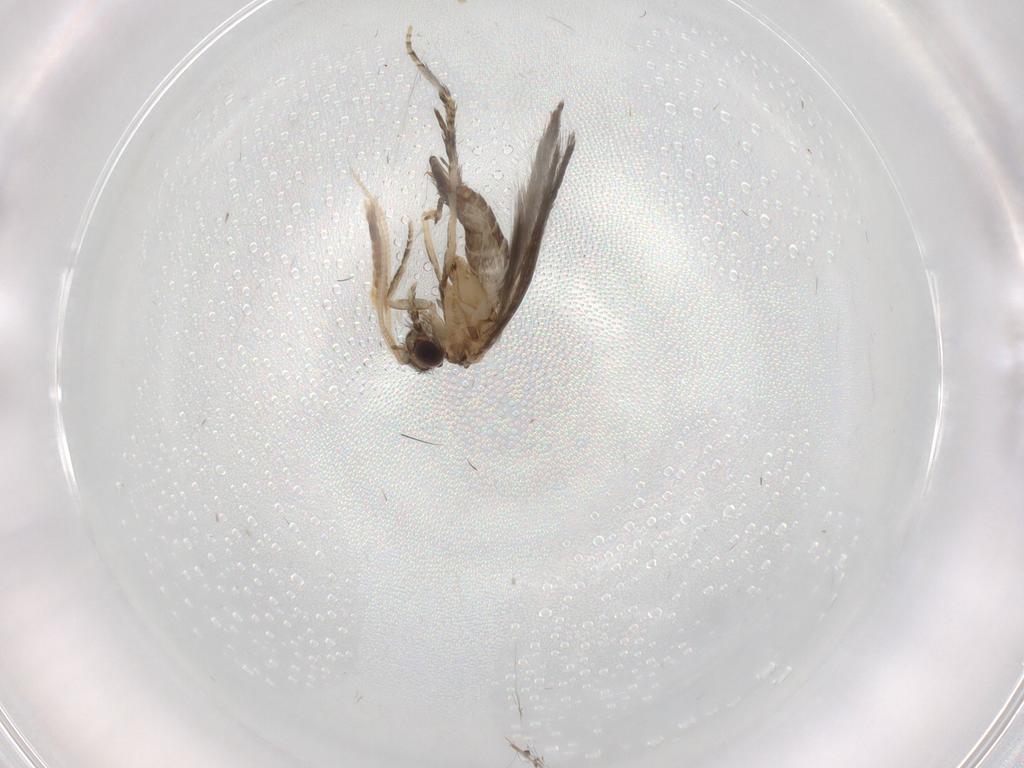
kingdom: Animalia
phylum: Arthropoda
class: Insecta
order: Trichoptera
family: Hydroptilidae
